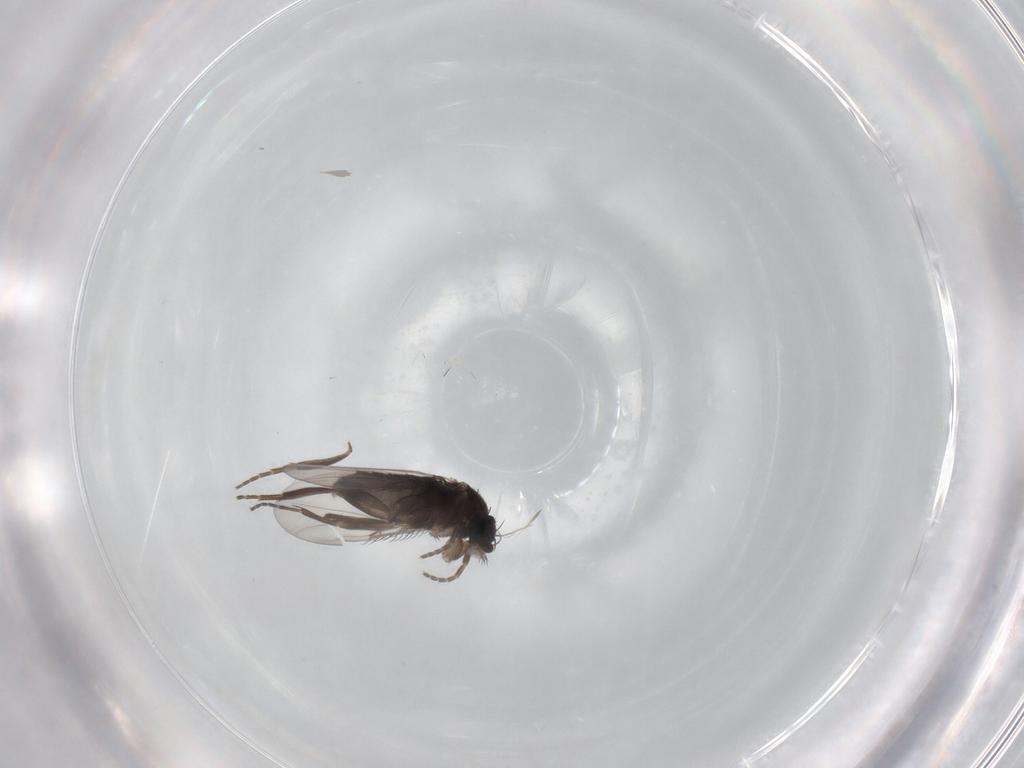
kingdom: Animalia
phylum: Arthropoda
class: Insecta
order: Diptera
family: Phoridae
